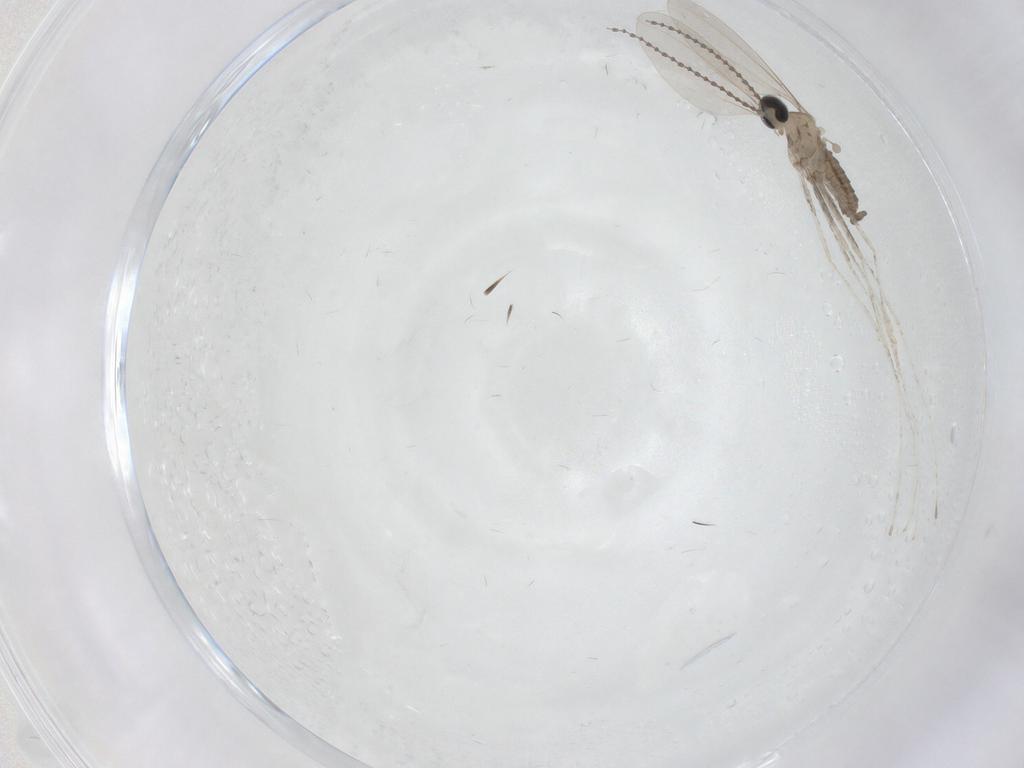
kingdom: Animalia
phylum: Arthropoda
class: Insecta
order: Diptera
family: Cecidomyiidae
